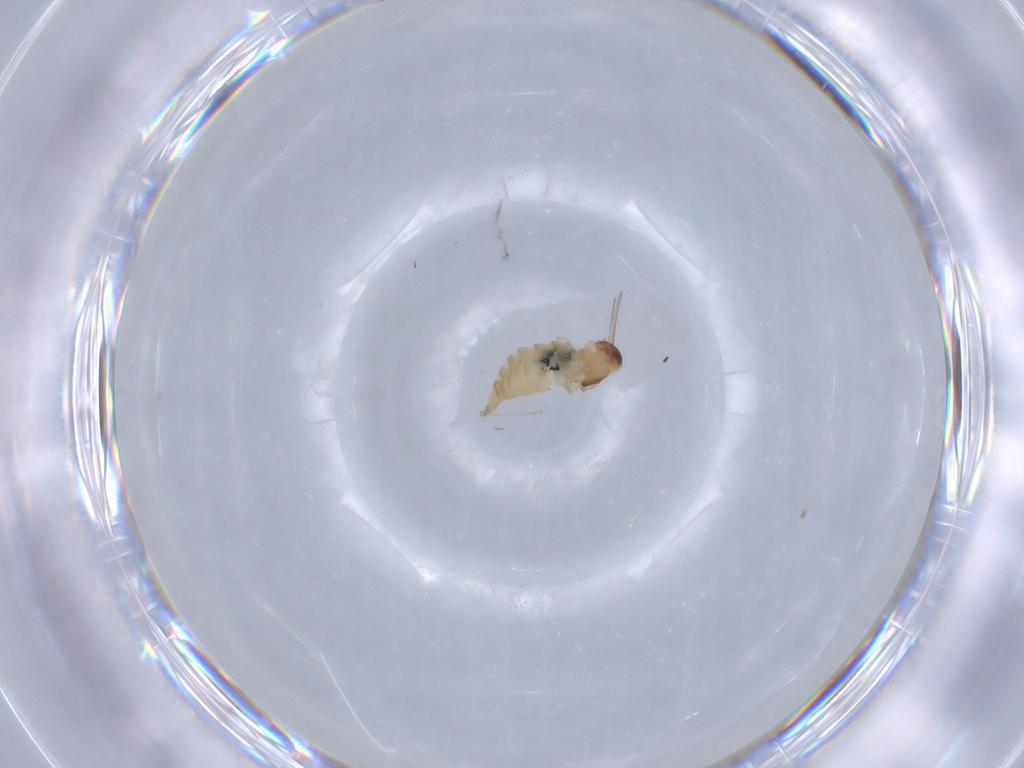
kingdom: Animalia
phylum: Arthropoda
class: Insecta
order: Diptera
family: Cecidomyiidae
